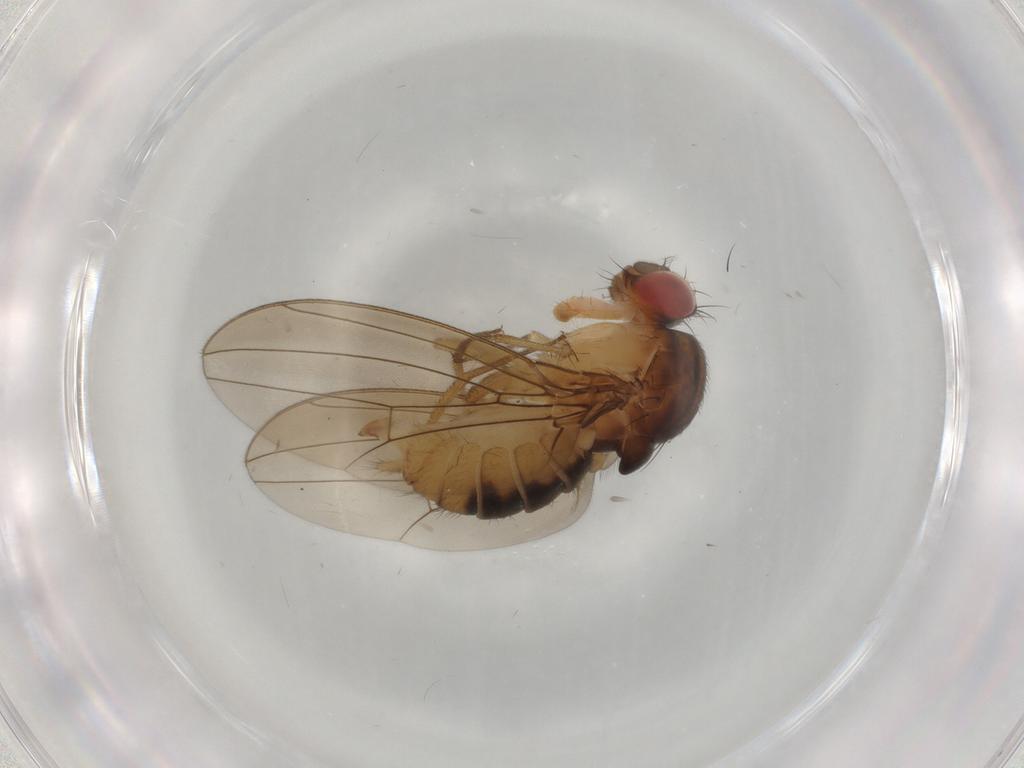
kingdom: Animalia
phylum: Arthropoda
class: Insecta
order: Diptera
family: Drosophilidae
